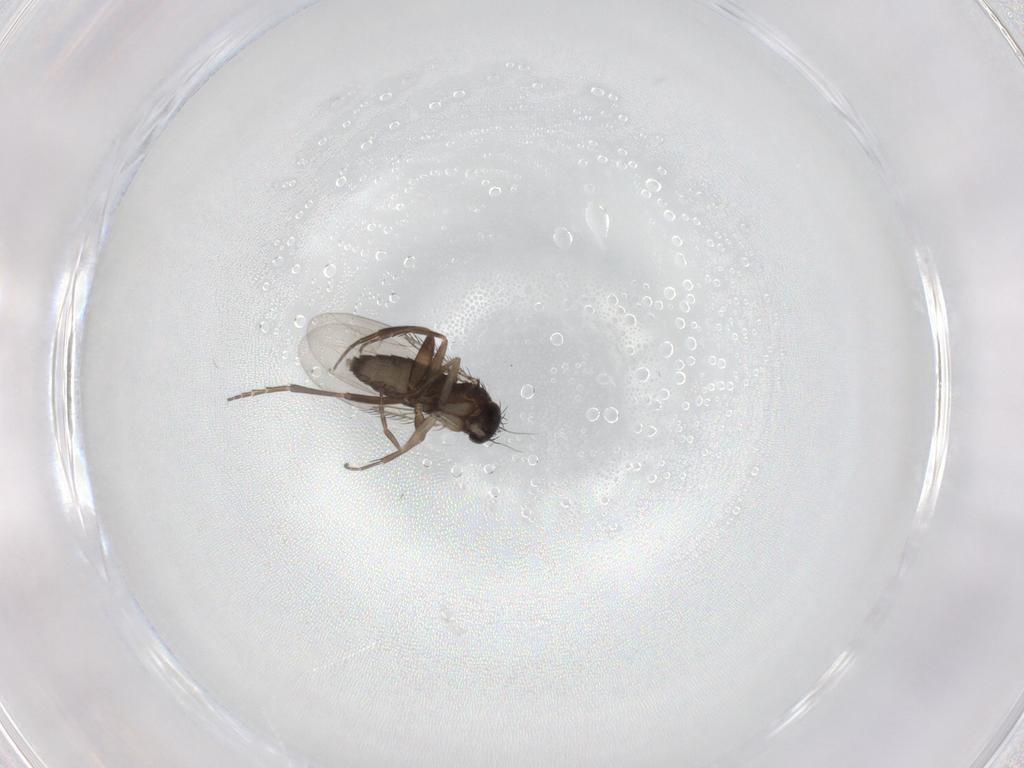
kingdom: Animalia
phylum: Arthropoda
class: Insecta
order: Diptera
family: Phoridae
